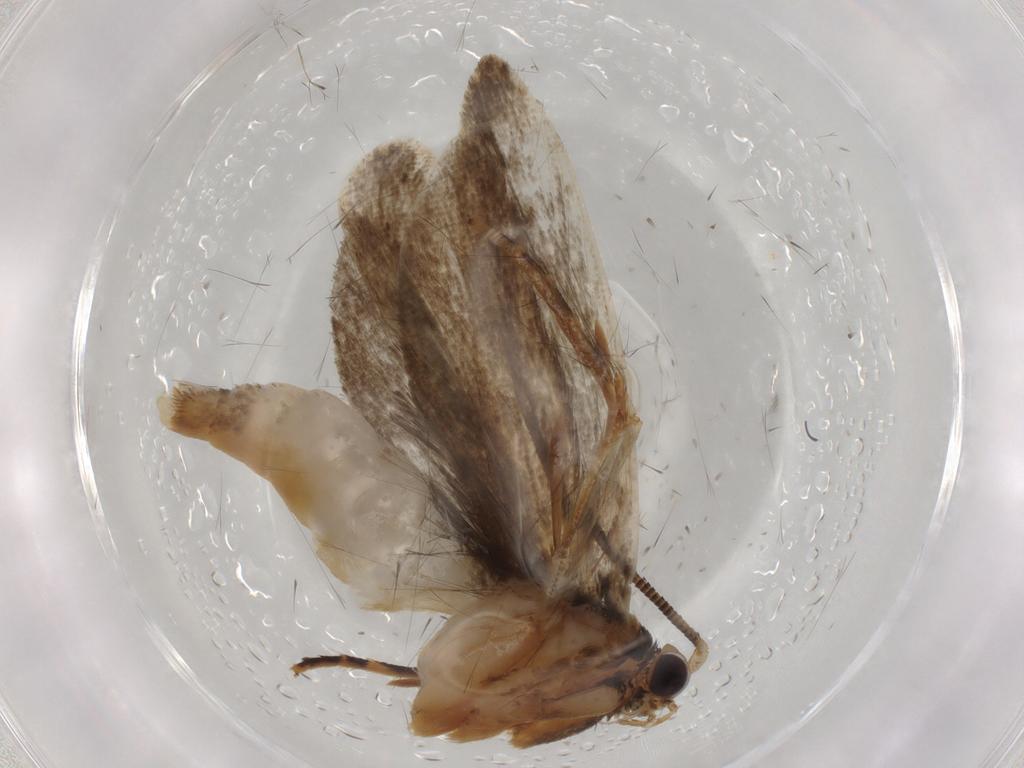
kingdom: Animalia
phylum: Arthropoda
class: Insecta
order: Lepidoptera
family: Tineidae
